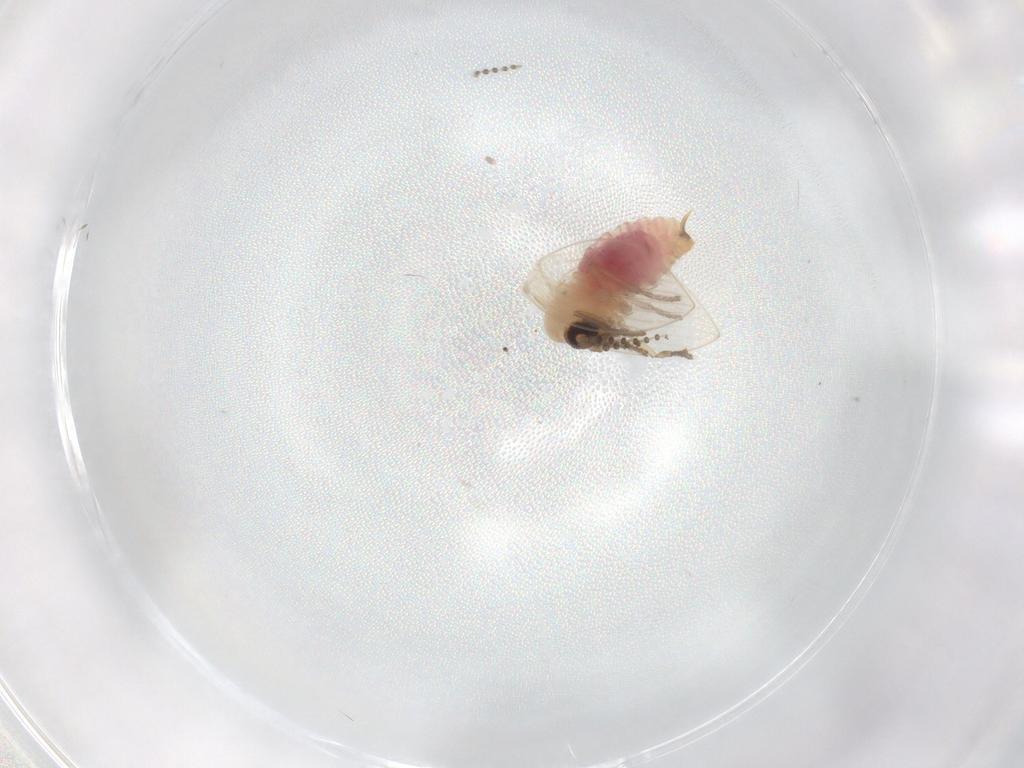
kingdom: Animalia
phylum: Arthropoda
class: Insecta
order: Diptera
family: Psychodidae
